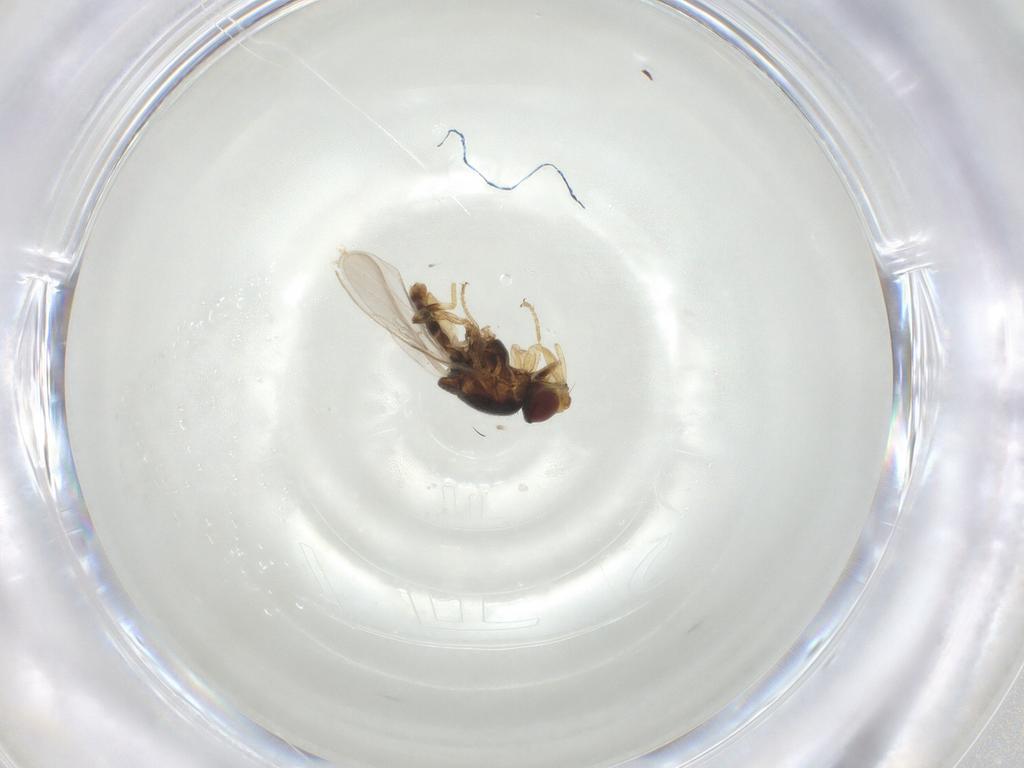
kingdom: Animalia
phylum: Arthropoda
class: Insecta
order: Diptera
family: Chloropidae
